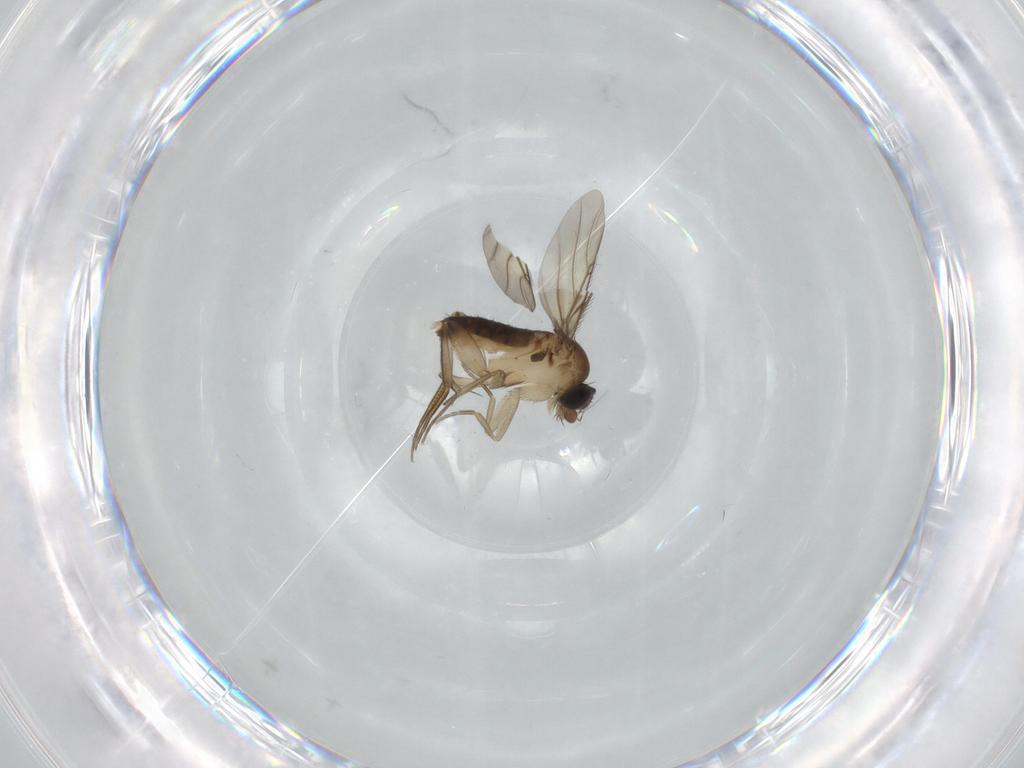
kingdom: Animalia
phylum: Arthropoda
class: Insecta
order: Diptera
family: Phoridae
